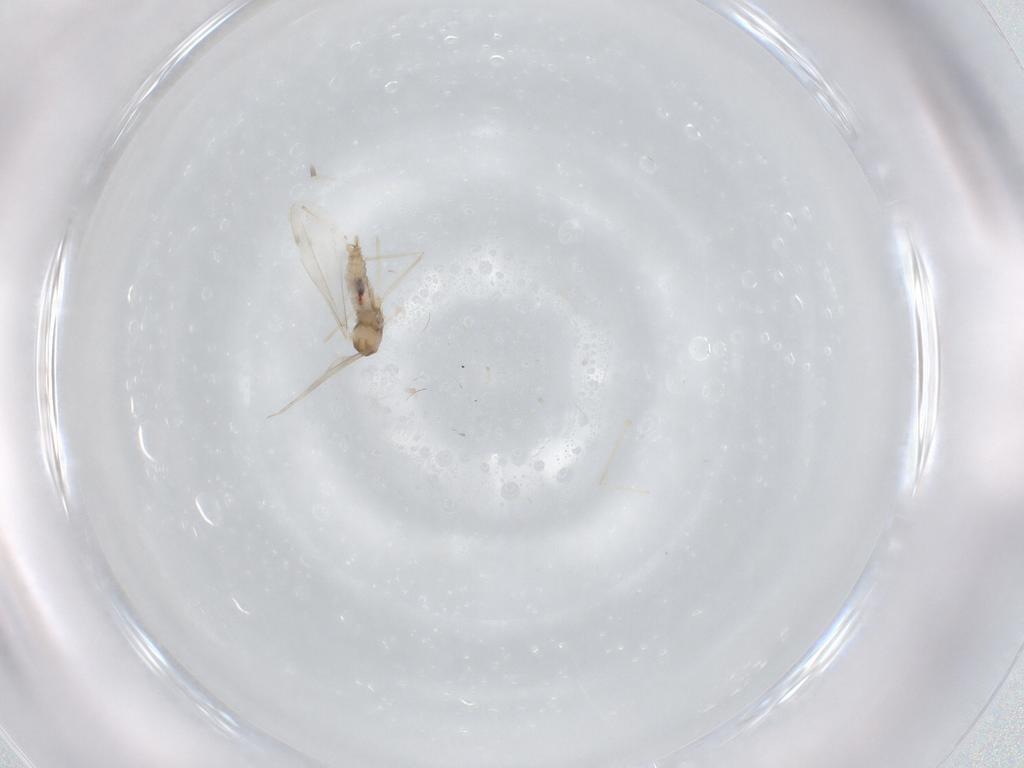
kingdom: Animalia
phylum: Arthropoda
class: Insecta
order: Diptera
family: Cecidomyiidae
